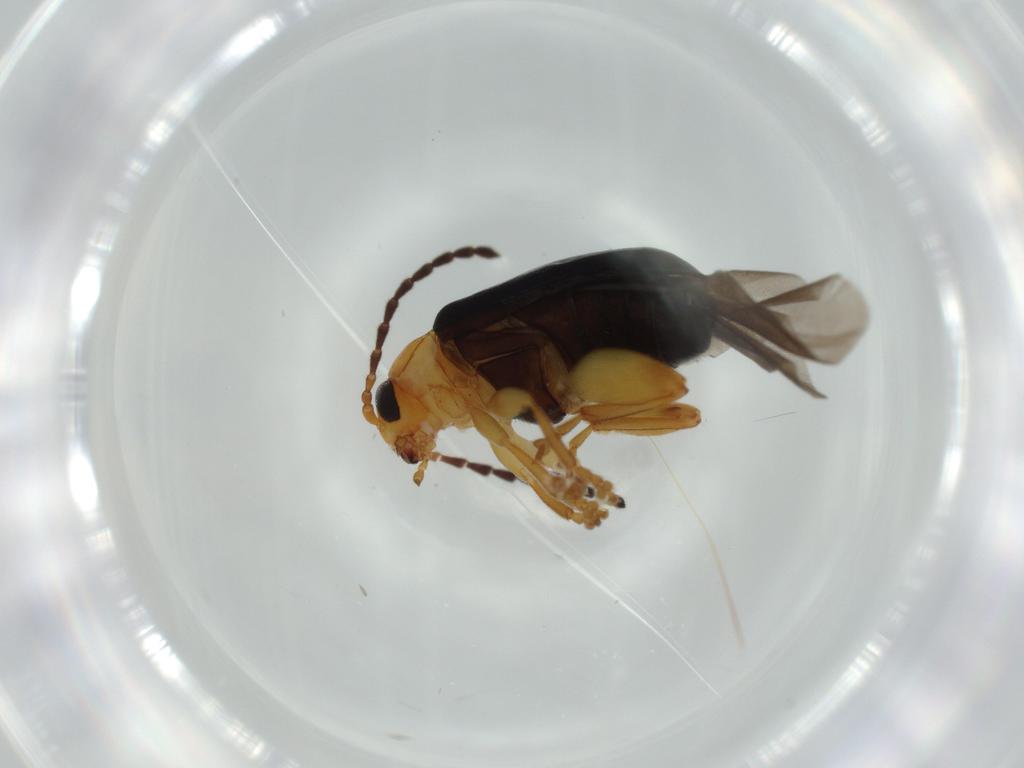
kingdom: Animalia
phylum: Arthropoda
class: Insecta
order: Coleoptera
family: Chrysomelidae
